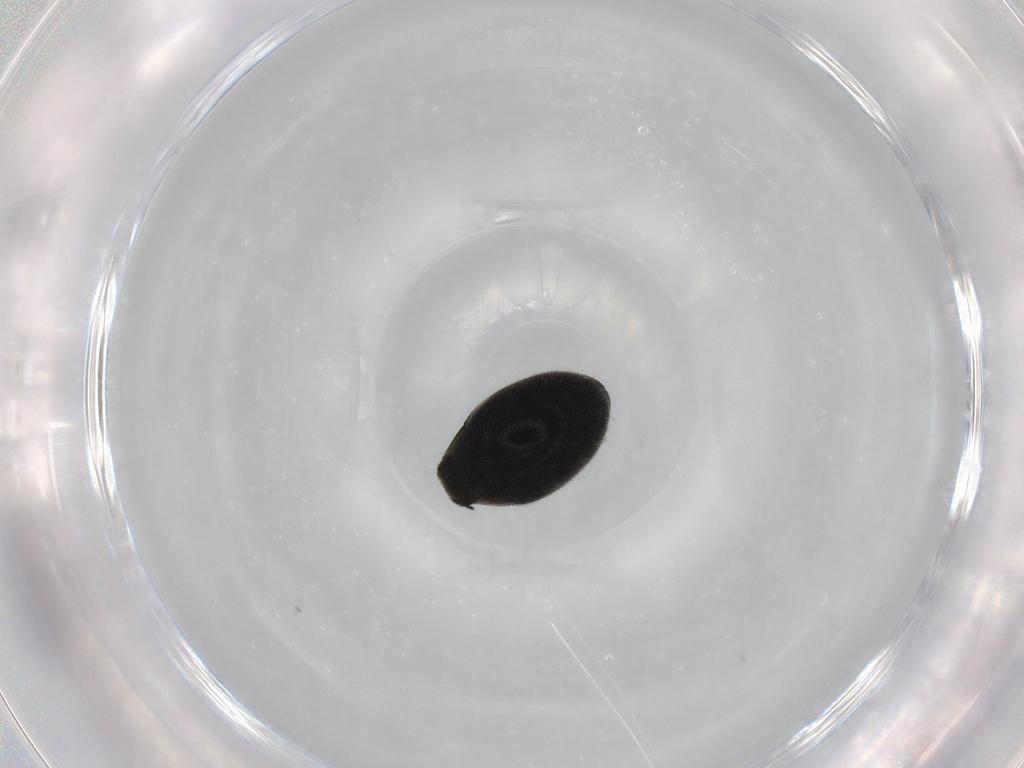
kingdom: Animalia
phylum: Arthropoda
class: Insecta
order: Coleoptera
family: Limnichidae
